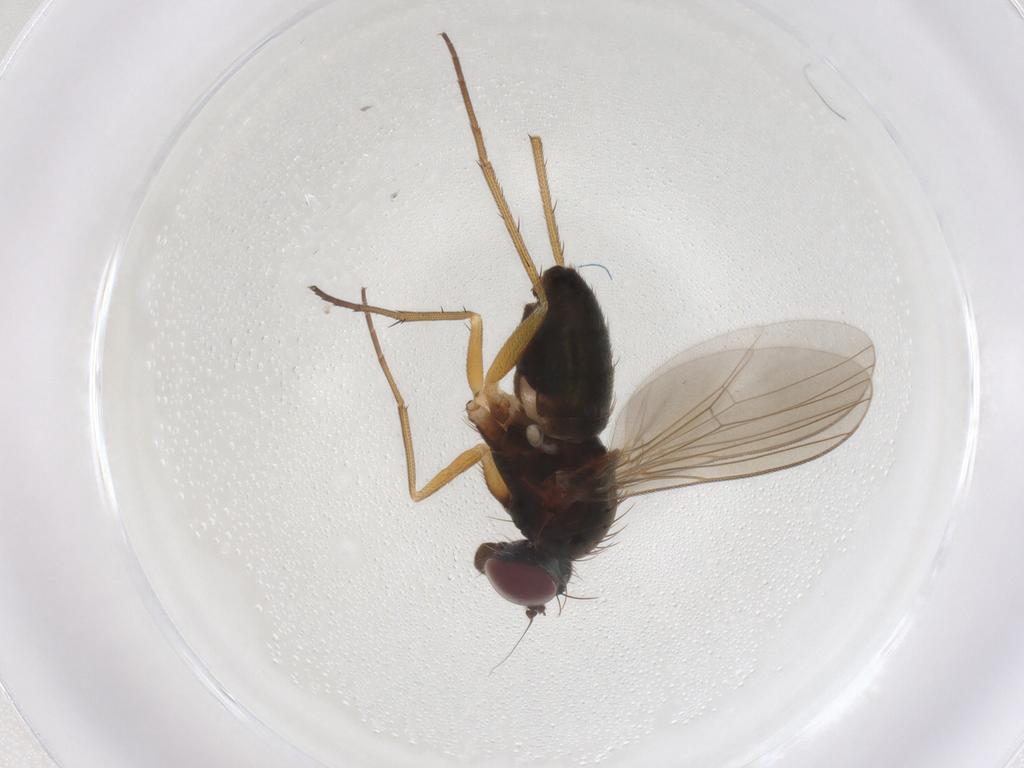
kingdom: Animalia
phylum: Arthropoda
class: Insecta
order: Diptera
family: Dolichopodidae
